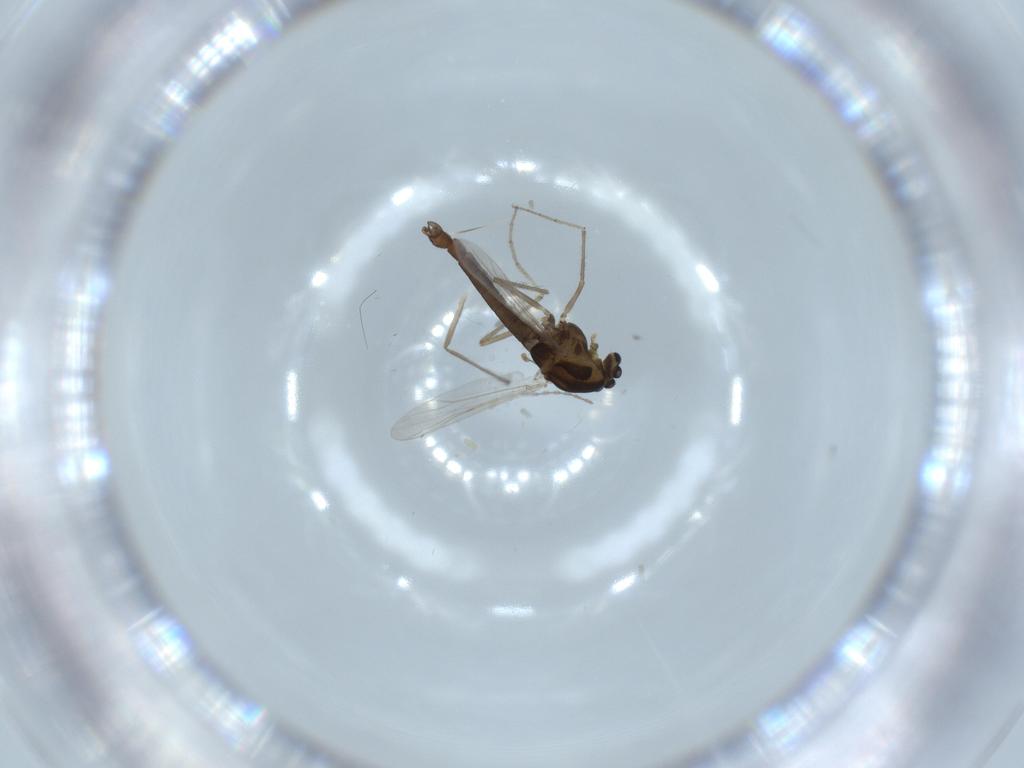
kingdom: Animalia
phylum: Arthropoda
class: Insecta
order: Diptera
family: Chironomidae
